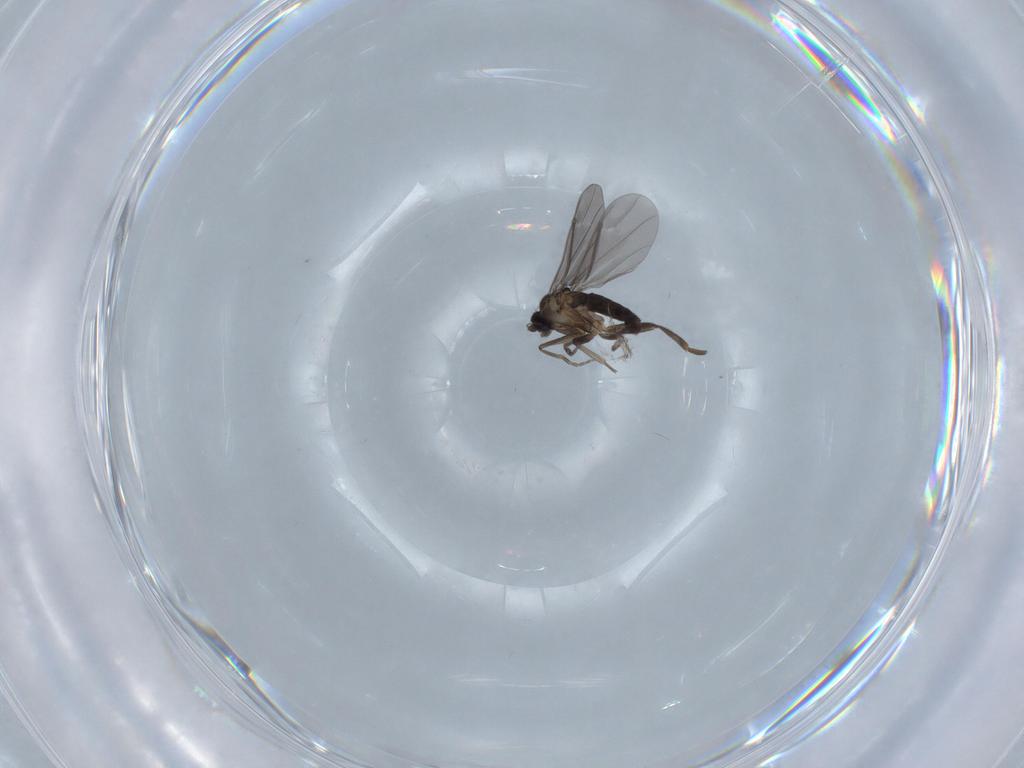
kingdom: Animalia
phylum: Arthropoda
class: Insecta
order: Diptera
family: Phoridae
